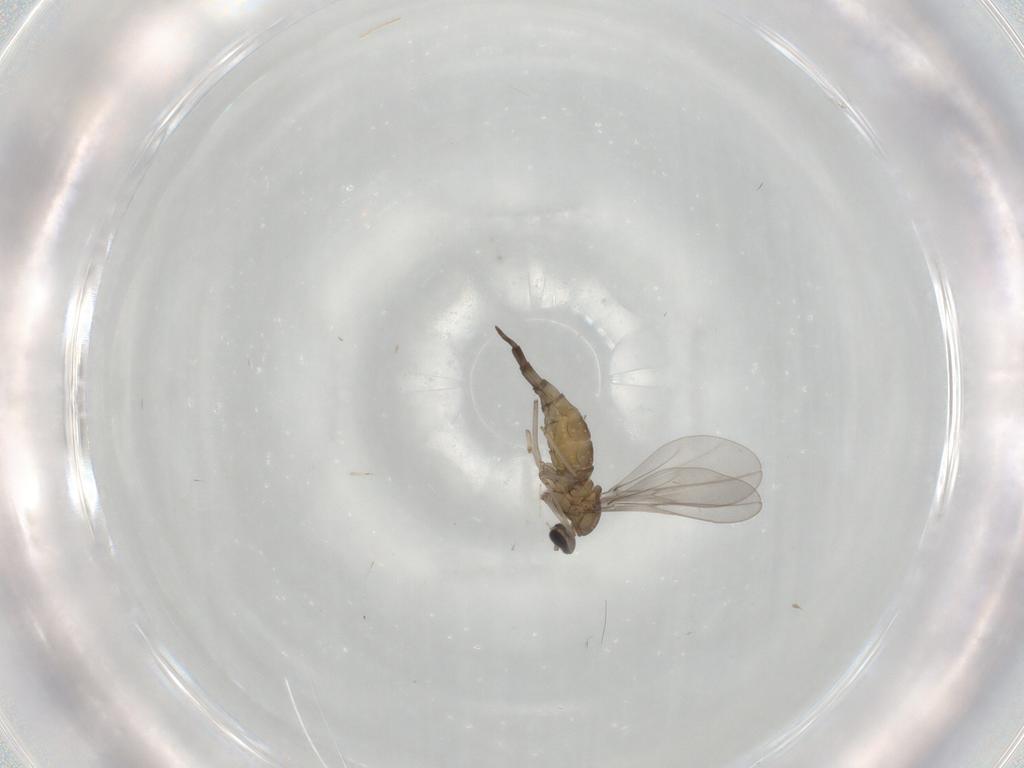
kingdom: Animalia
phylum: Arthropoda
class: Insecta
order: Diptera
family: Cecidomyiidae
